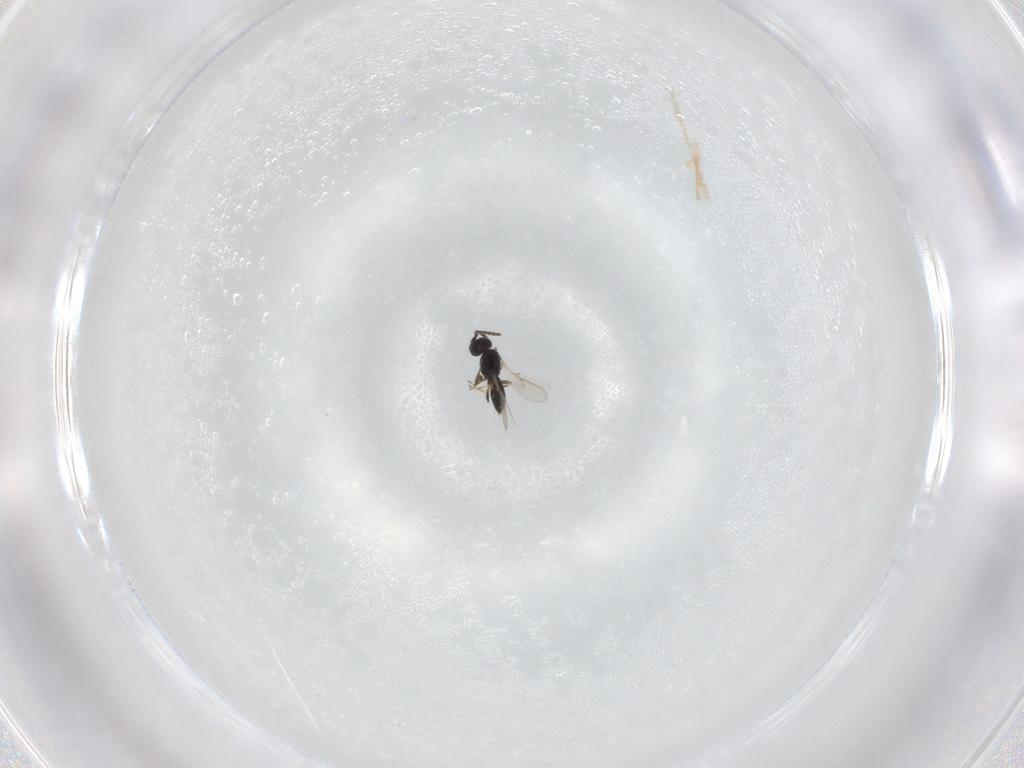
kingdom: Animalia
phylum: Arthropoda
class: Insecta
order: Hymenoptera
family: Scelionidae
